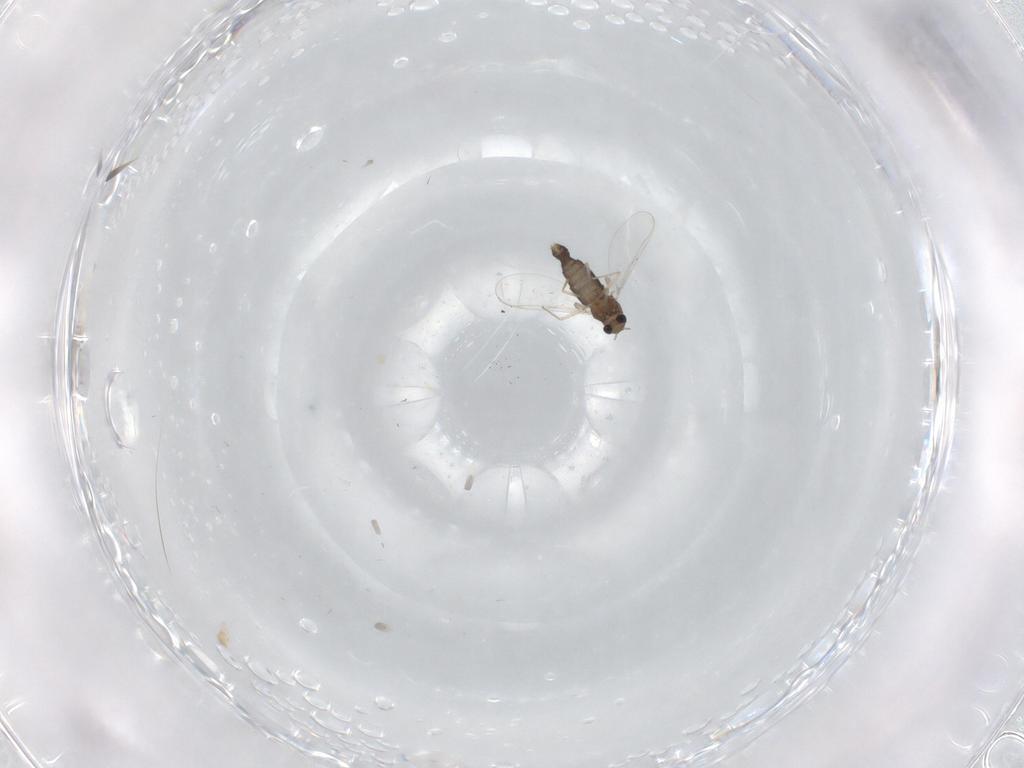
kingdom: Animalia
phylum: Arthropoda
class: Insecta
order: Diptera
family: Chironomidae
